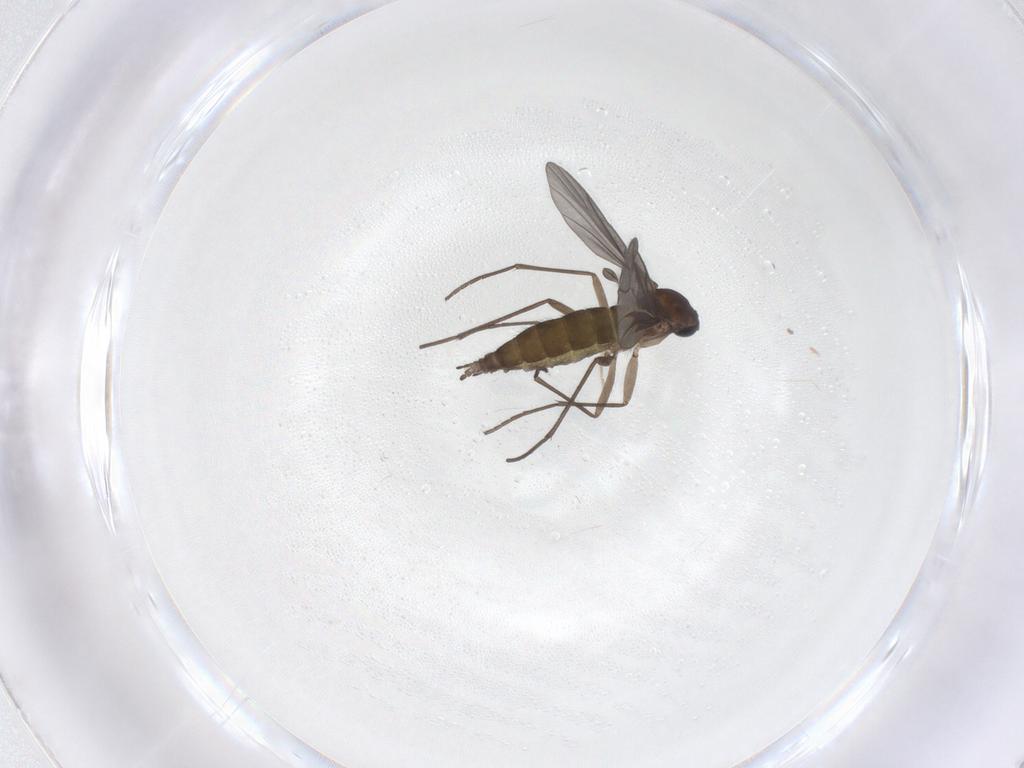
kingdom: Animalia
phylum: Arthropoda
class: Insecta
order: Diptera
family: Sciaridae
